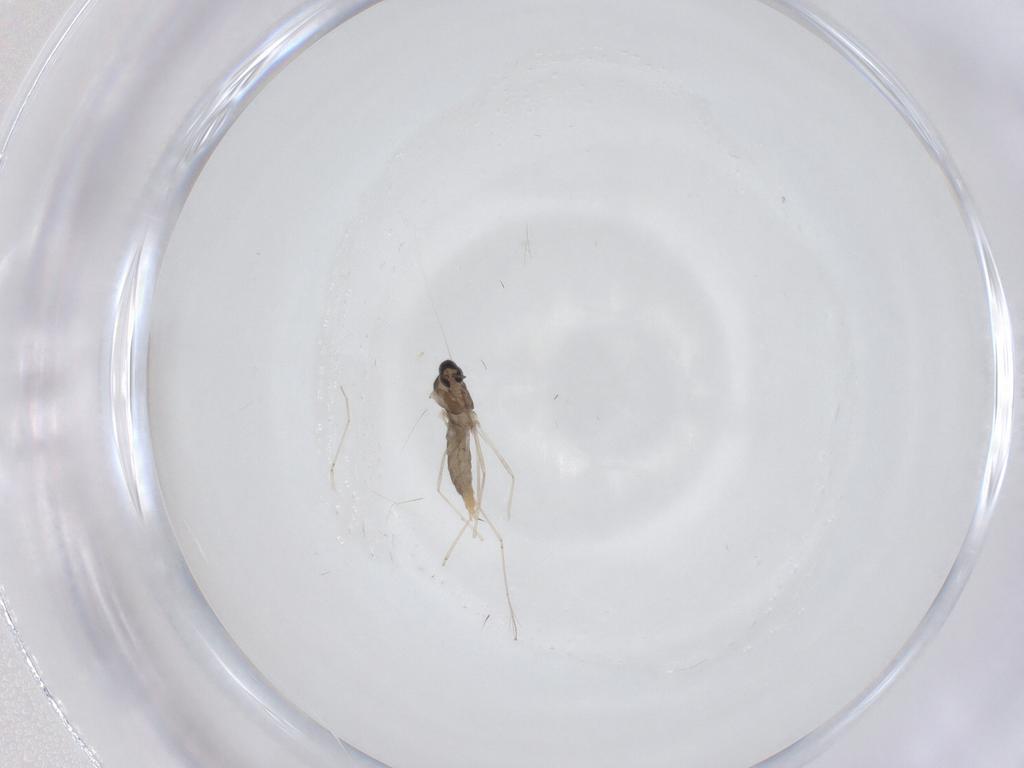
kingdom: Animalia
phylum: Arthropoda
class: Insecta
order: Diptera
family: Cecidomyiidae
